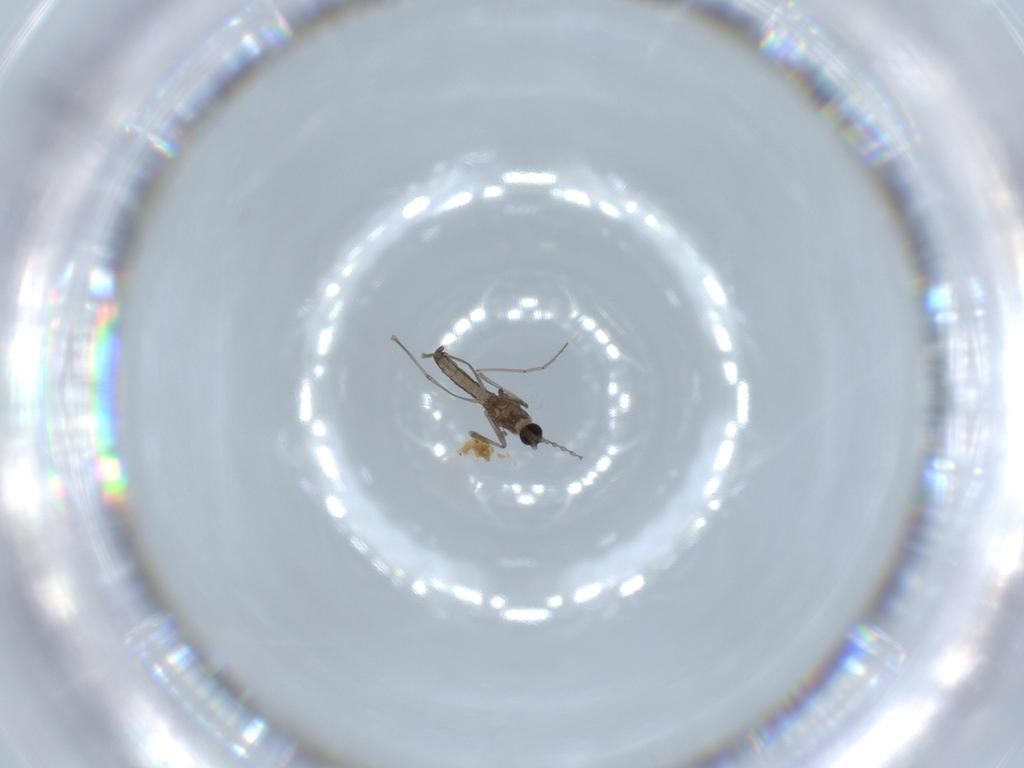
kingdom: Animalia
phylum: Arthropoda
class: Insecta
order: Diptera
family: Cecidomyiidae
